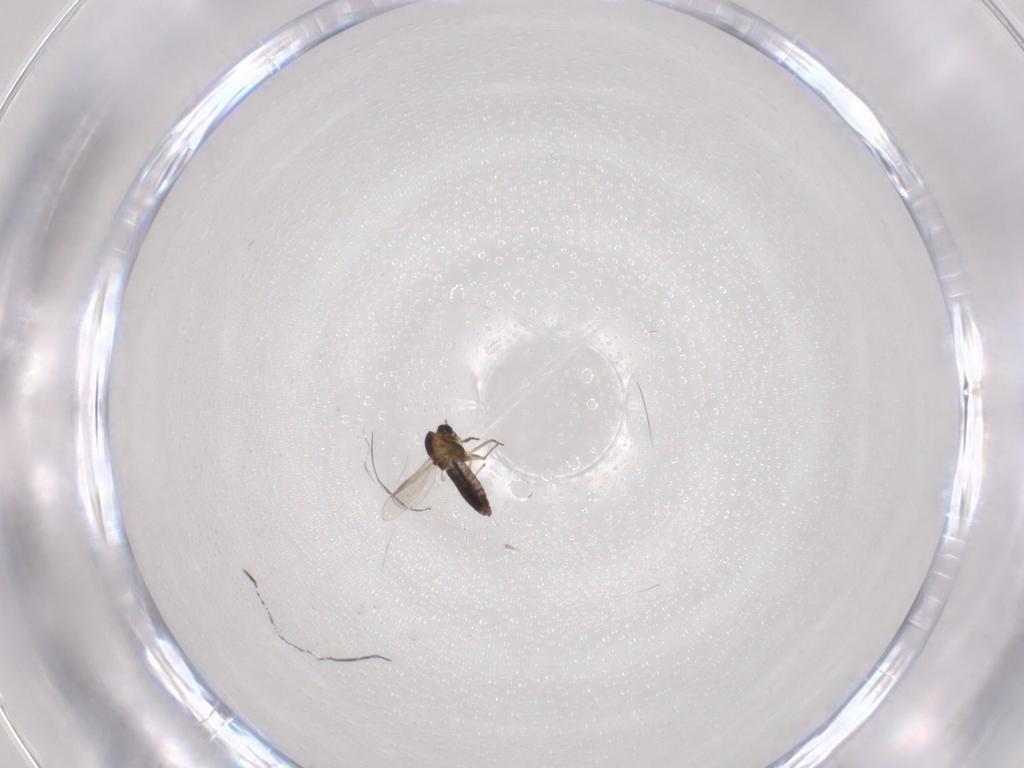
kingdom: Animalia
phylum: Arthropoda
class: Insecta
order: Diptera
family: Chironomidae
